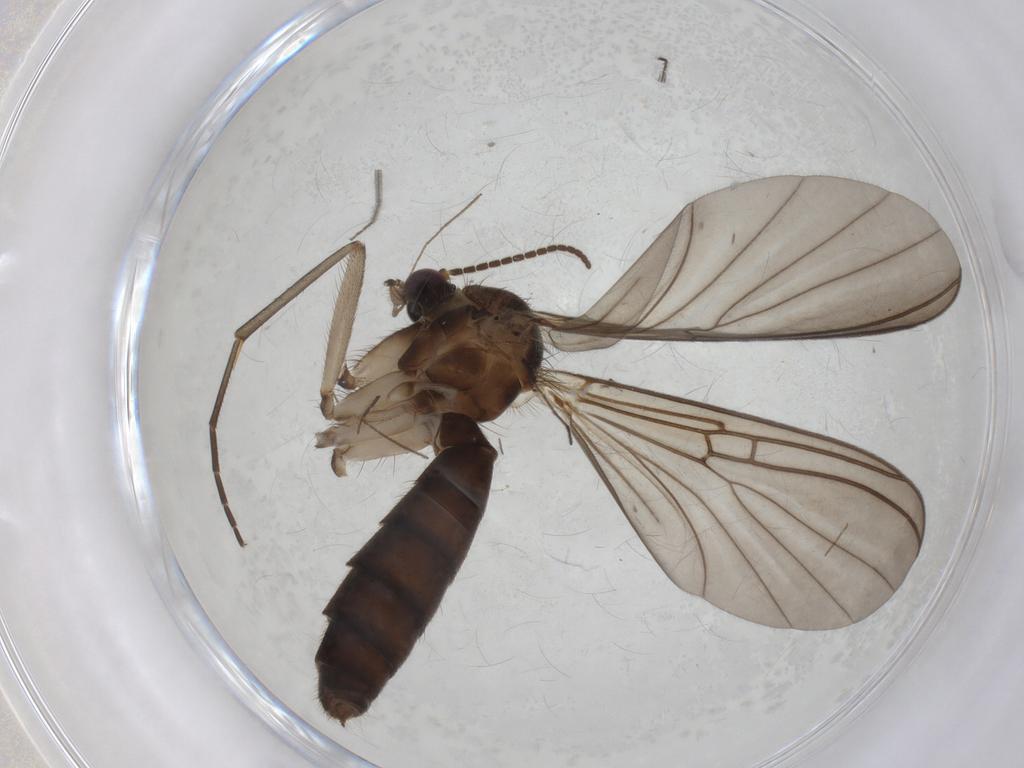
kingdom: Animalia
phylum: Arthropoda
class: Insecta
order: Diptera
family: Mycetophilidae
